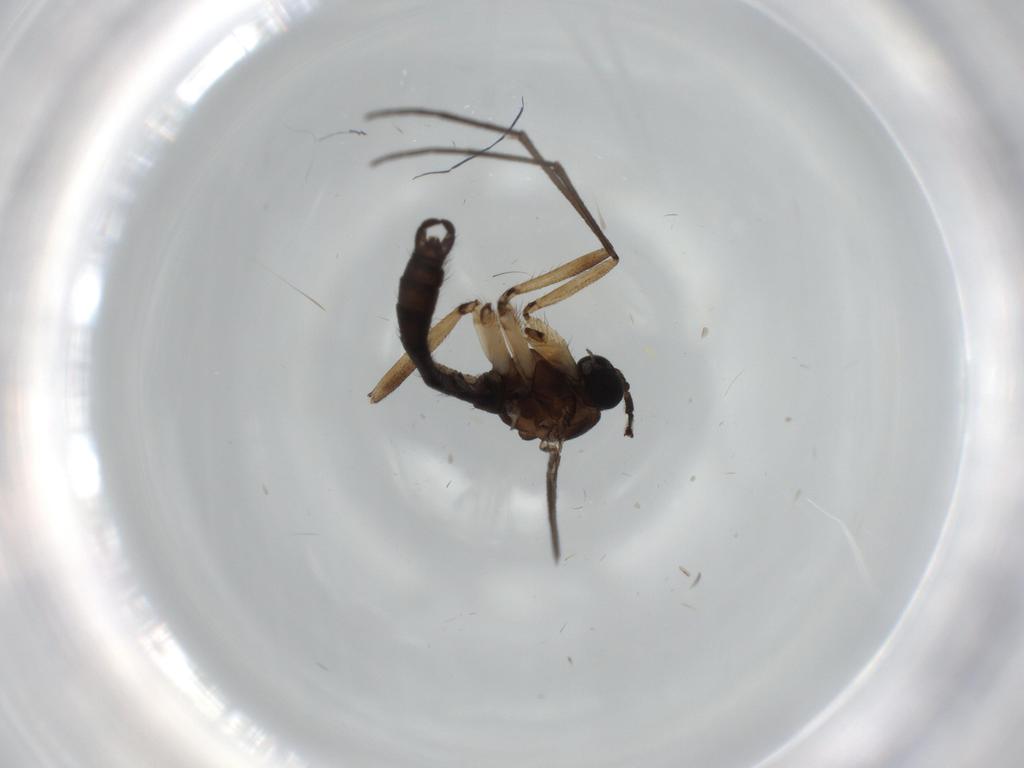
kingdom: Animalia
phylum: Arthropoda
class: Insecta
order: Diptera
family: Sciaridae
